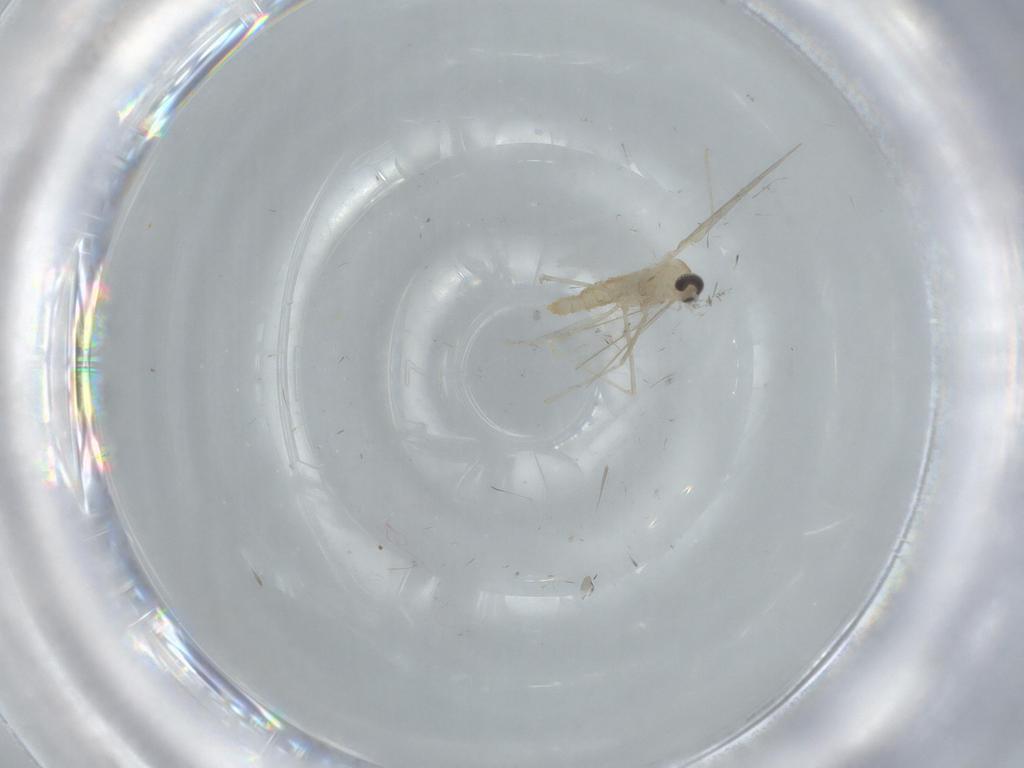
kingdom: Animalia
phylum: Arthropoda
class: Insecta
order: Diptera
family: Cecidomyiidae
